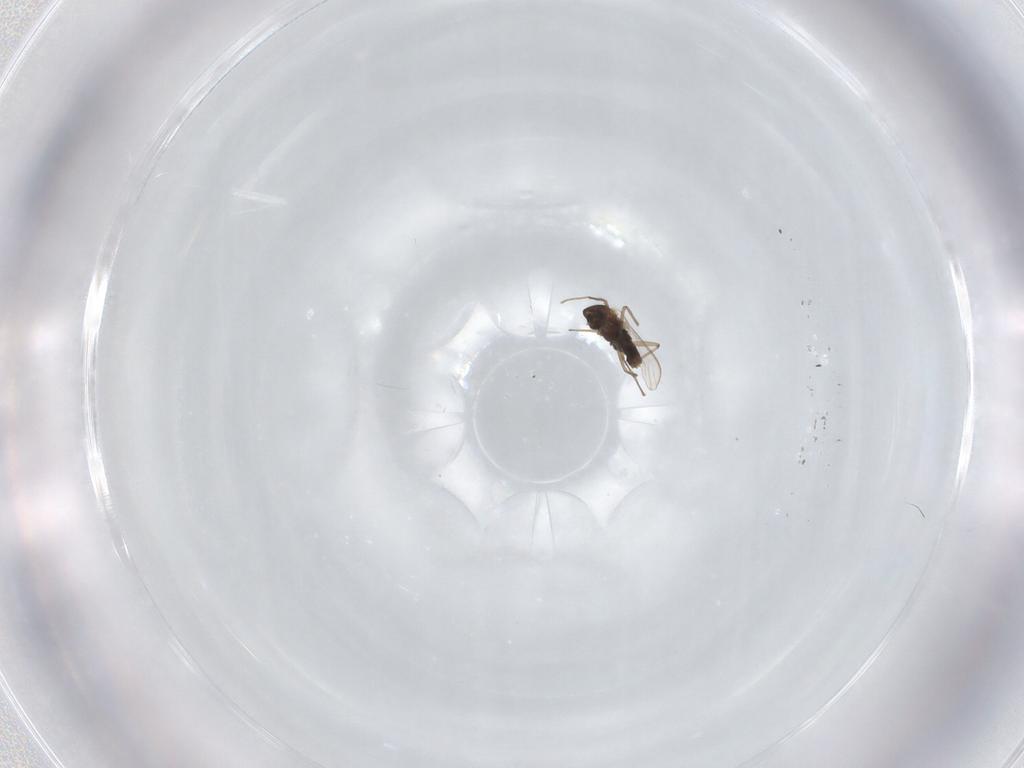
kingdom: Animalia
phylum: Arthropoda
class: Insecta
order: Diptera
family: Chironomidae
